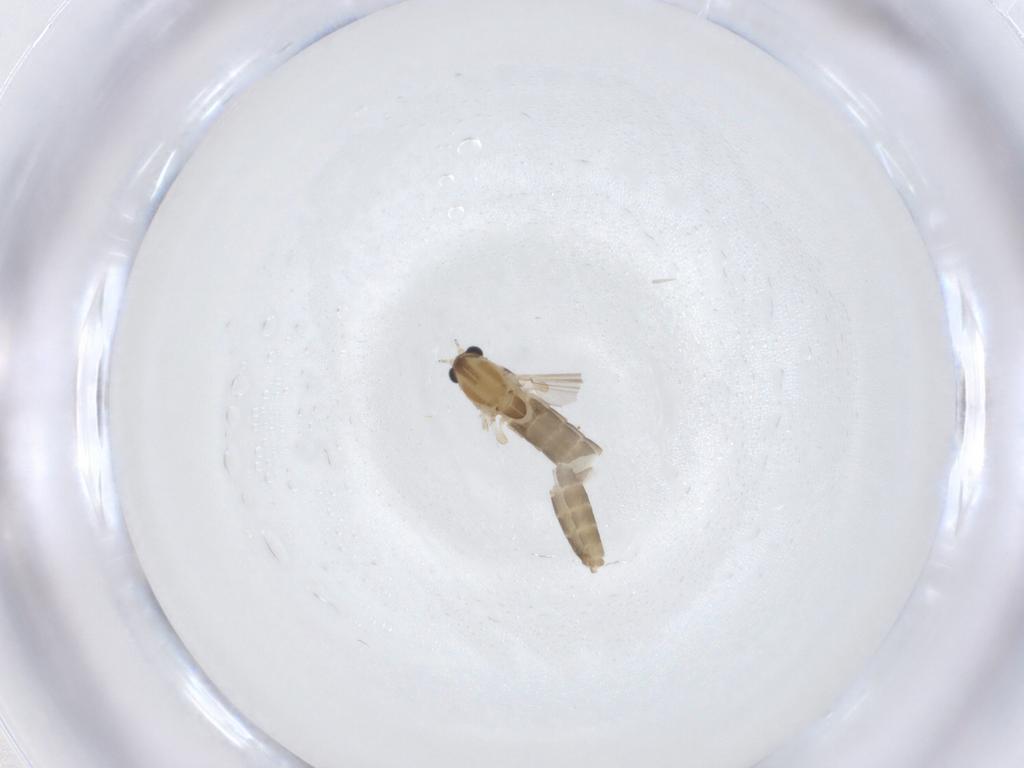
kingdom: Animalia
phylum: Arthropoda
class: Insecta
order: Diptera
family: Chironomidae
